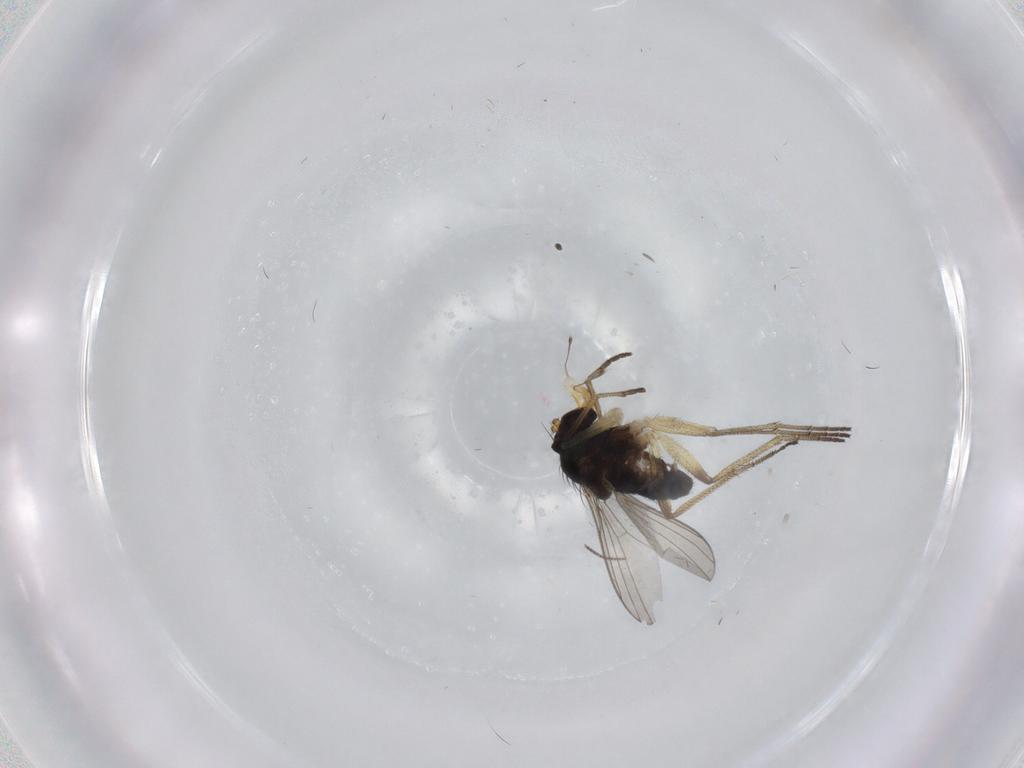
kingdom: Animalia
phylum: Arthropoda
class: Insecta
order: Diptera
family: Dolichopodidae
